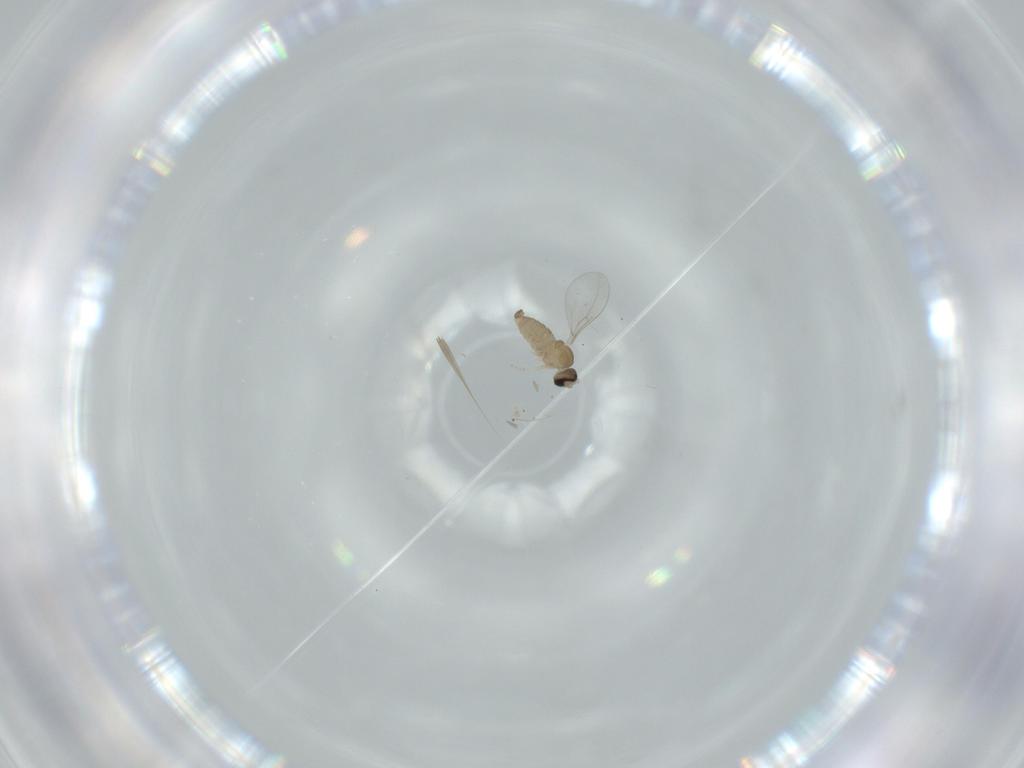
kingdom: Animalia
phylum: Arthropoda
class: Insecta
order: Diptera
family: Cecidomyiidae
